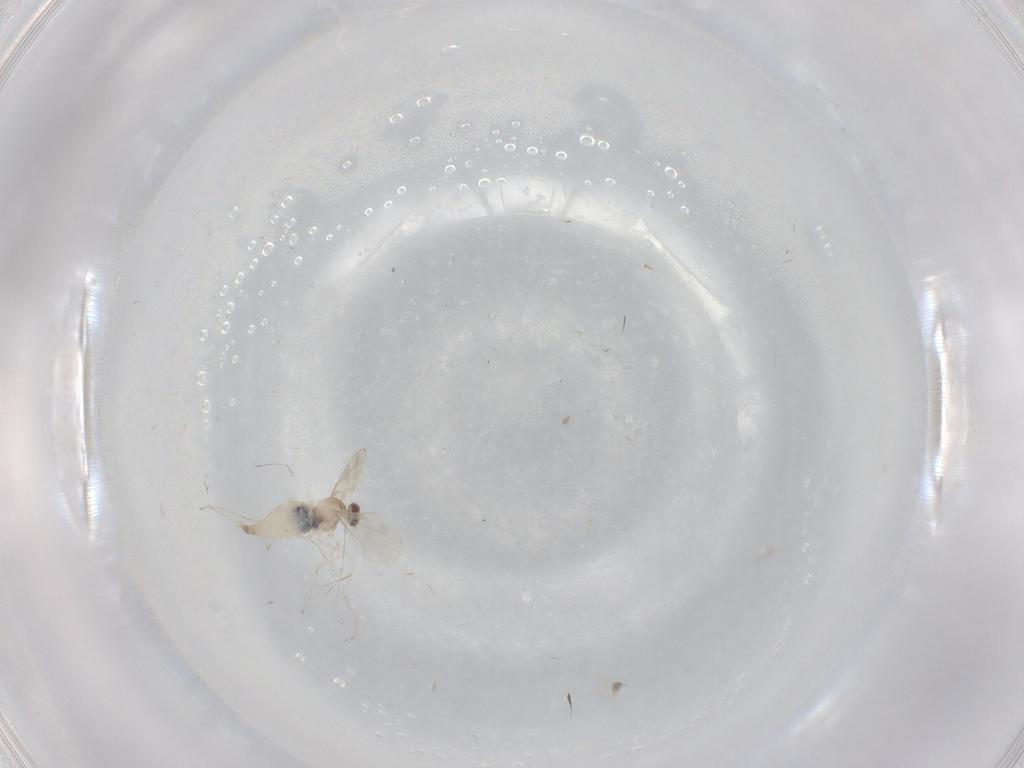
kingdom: Animalia
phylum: Arthropoda
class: Insecta
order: Diptera
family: Cecidomyiidae
